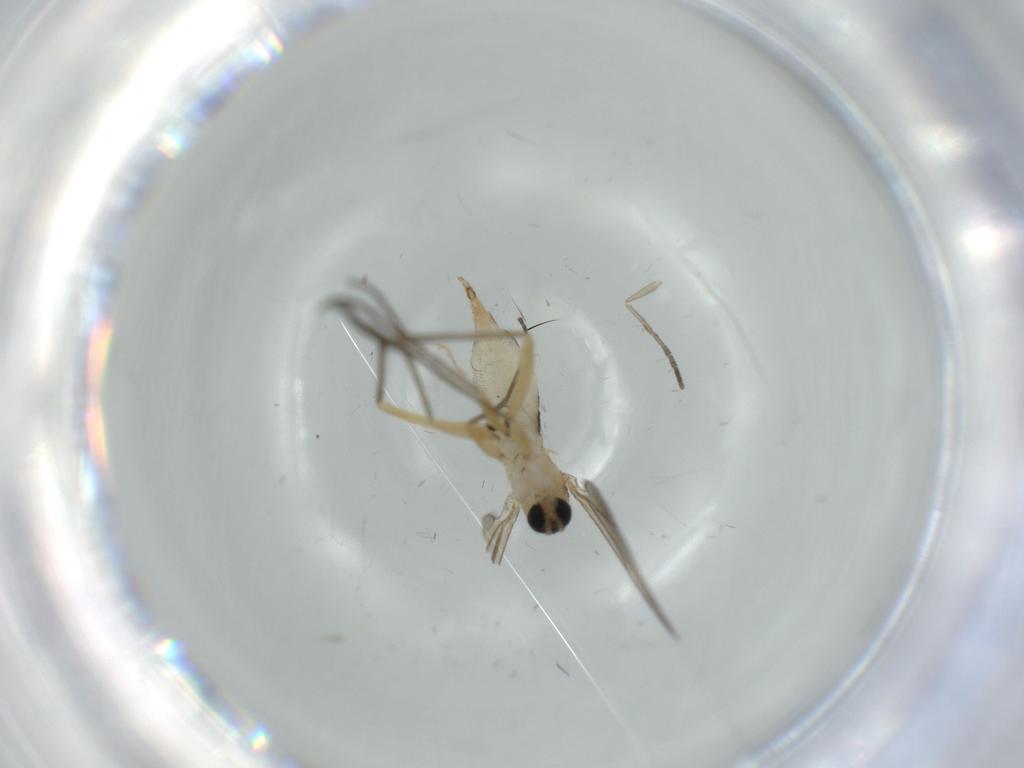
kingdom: Animalia
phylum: Arthropoda
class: Insecta
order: Diptera
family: Sciaridae
